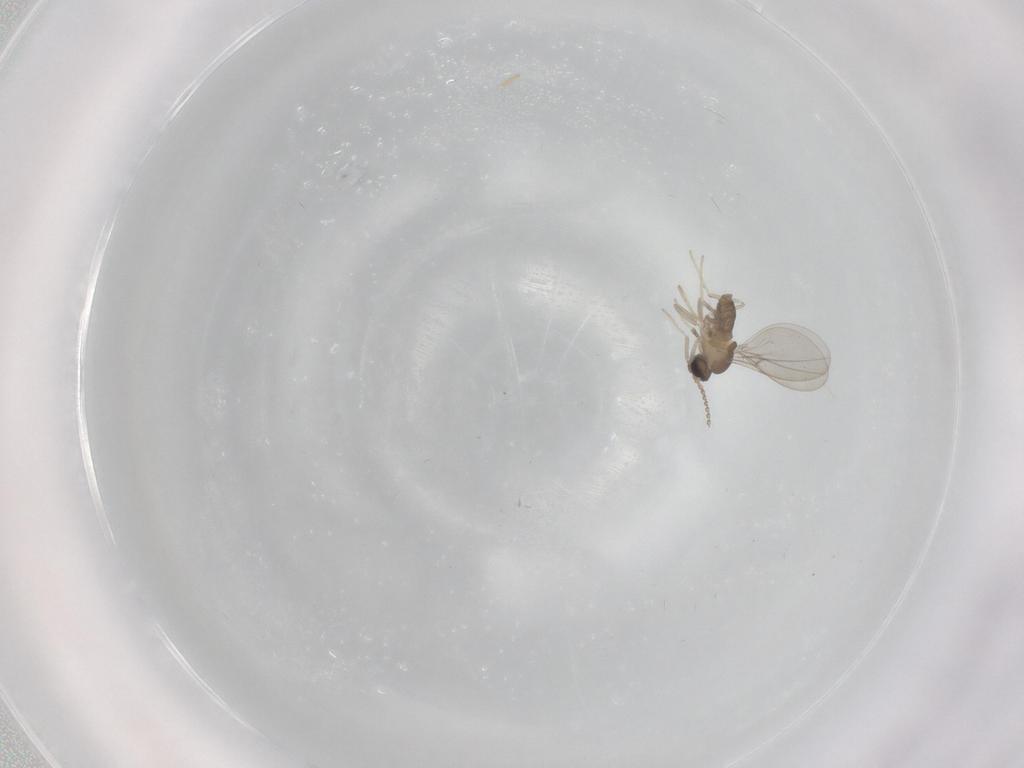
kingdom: Animalia
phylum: Arthropoda
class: Insecta
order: Diptera
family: Cecidomyiidae
